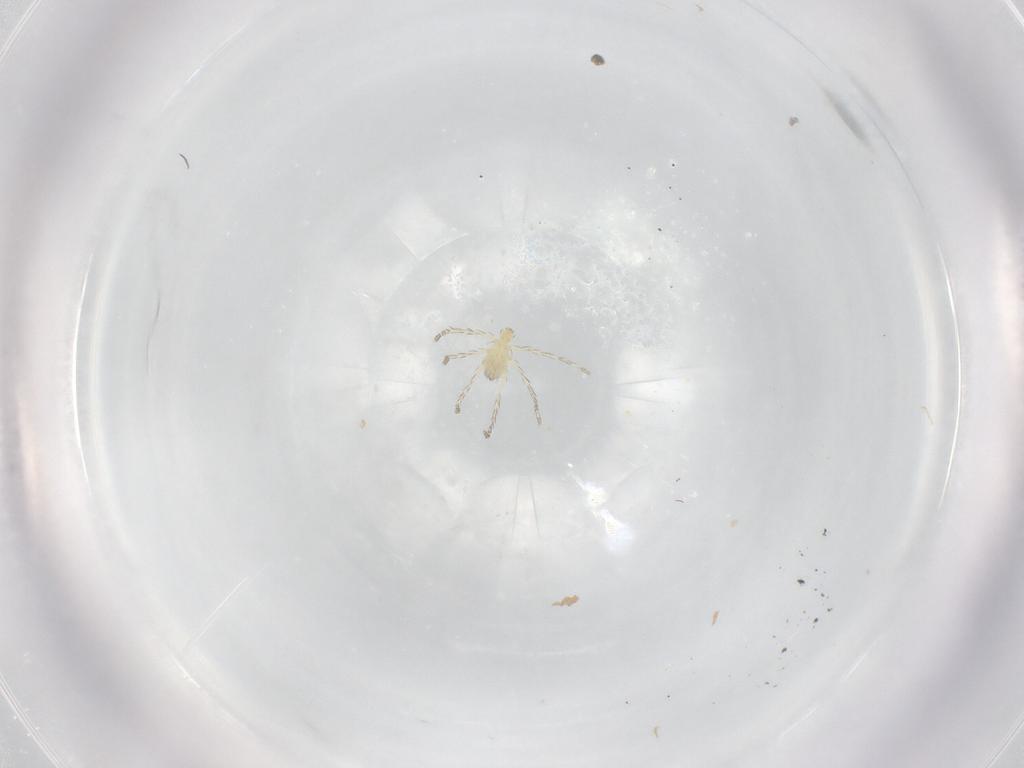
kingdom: Animalia
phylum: Arthropoda
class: Arachnida
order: Trombidiformes
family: Erythraeidae
